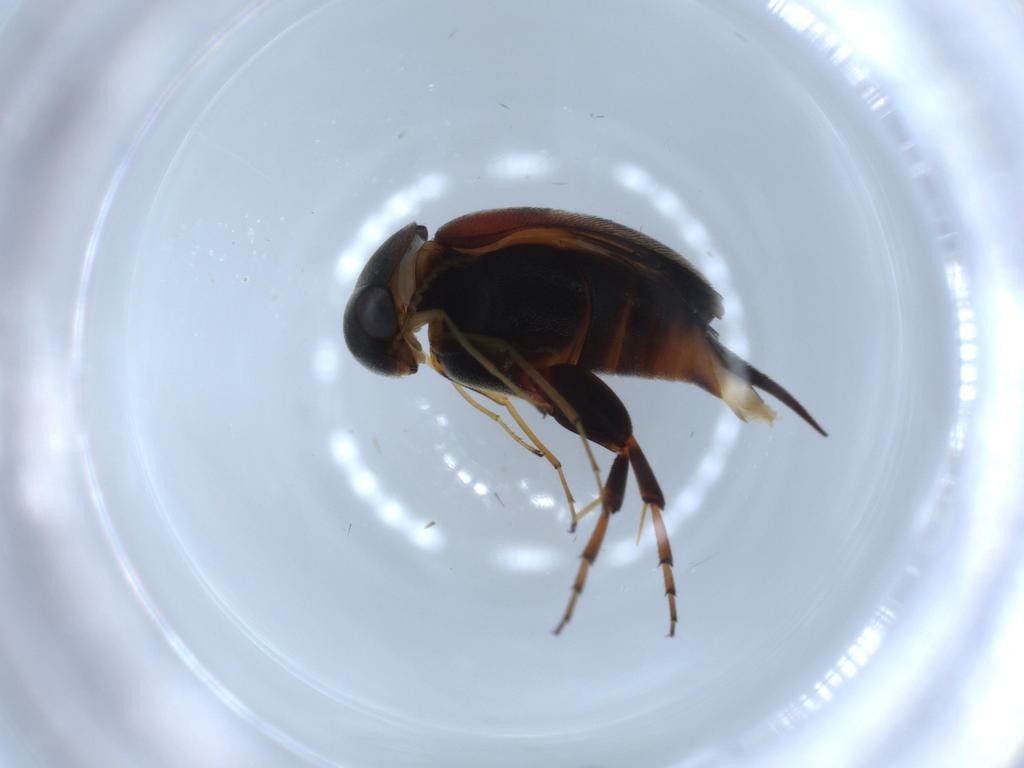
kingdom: Animalia
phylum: Arthropoda
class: Insecta
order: Coleoptera
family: Mordellidae
